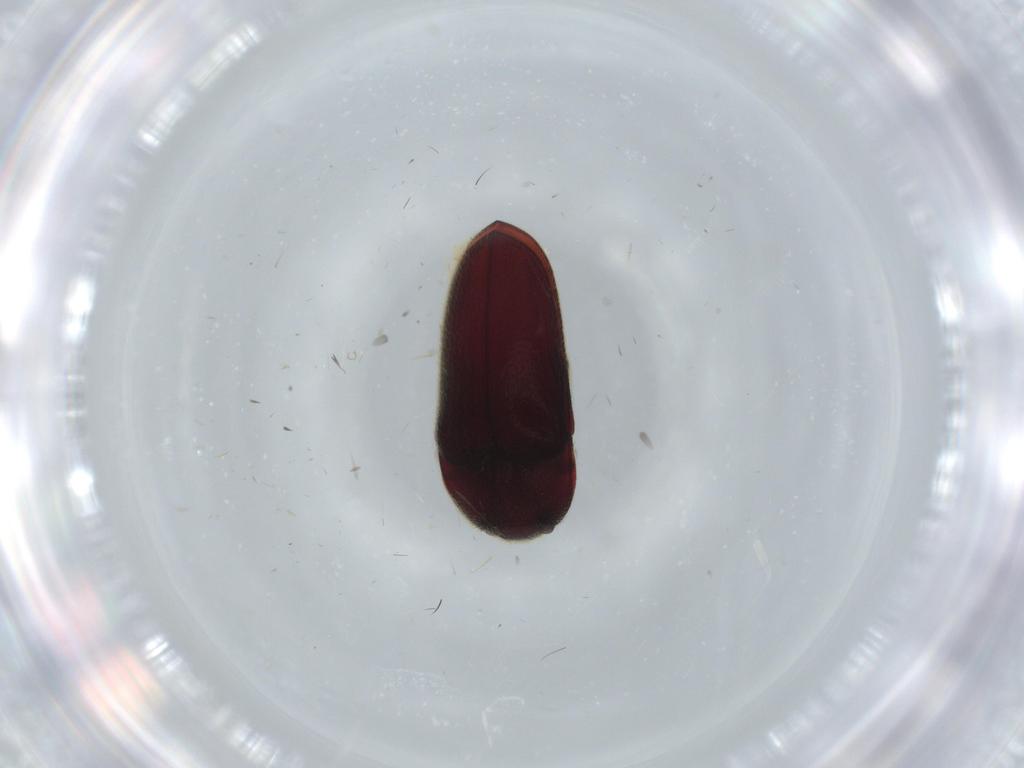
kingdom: Animalia
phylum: Arthropoda
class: Insecta
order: Coleoptera
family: Throscidae
